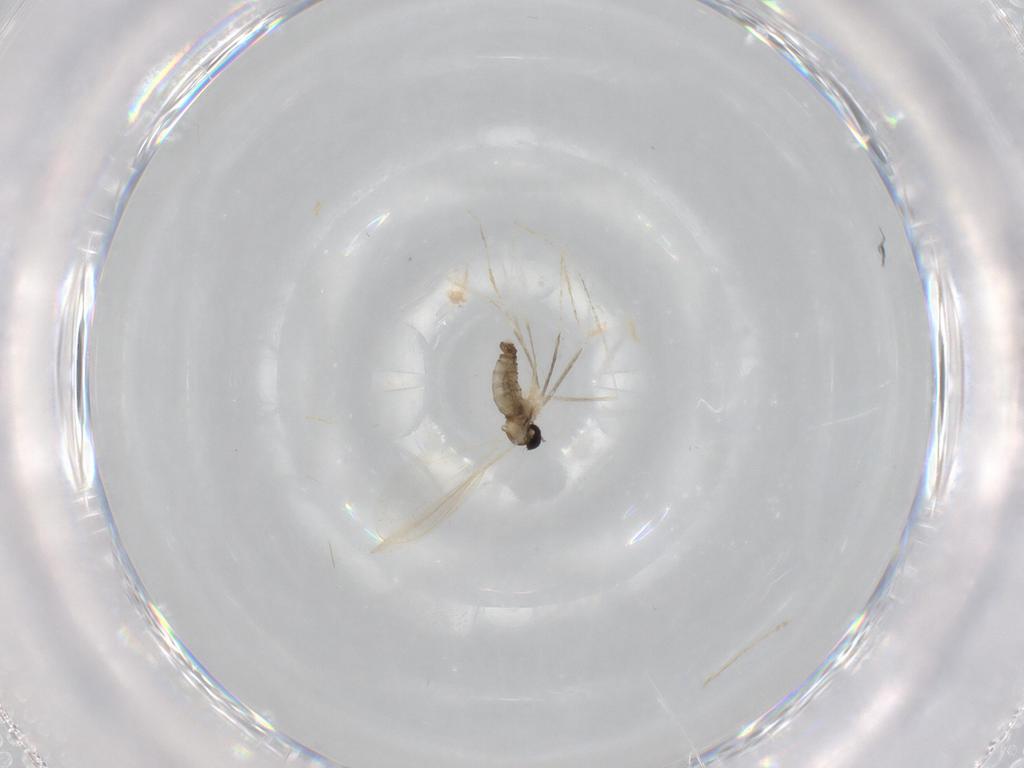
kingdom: Animalia
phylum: Arthropoda
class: Insecta
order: Diptera
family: Cecidomyiidae
